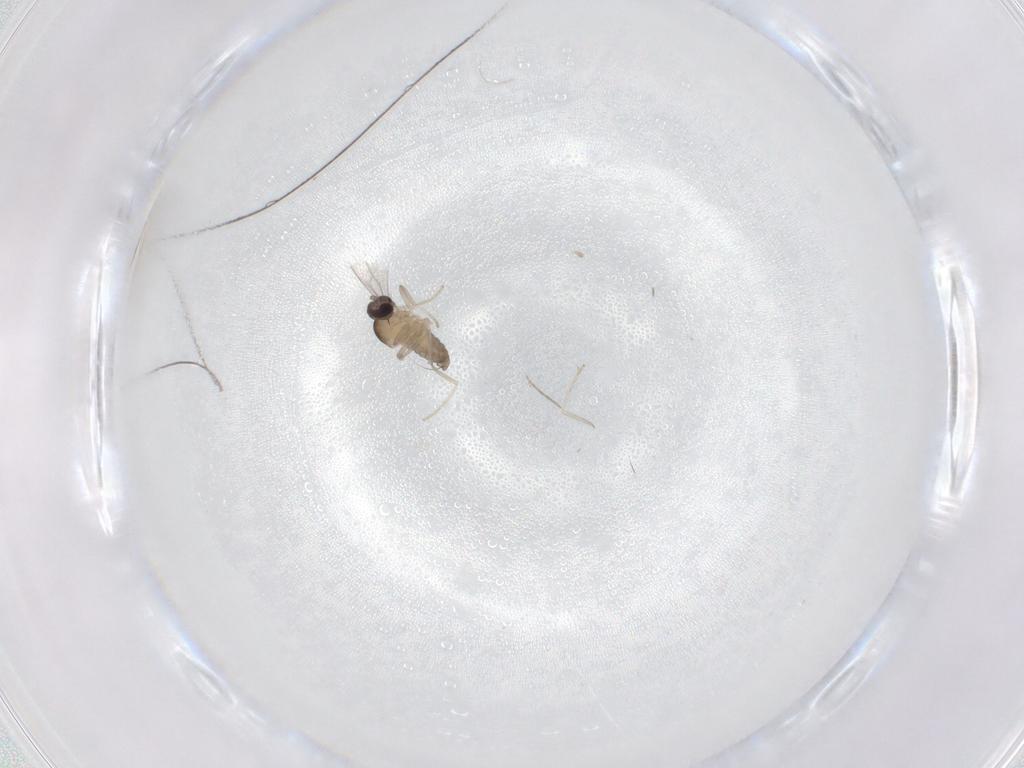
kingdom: Animalia
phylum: Arthropoda
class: Insecta
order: Diptera
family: Cecidomyiidae
